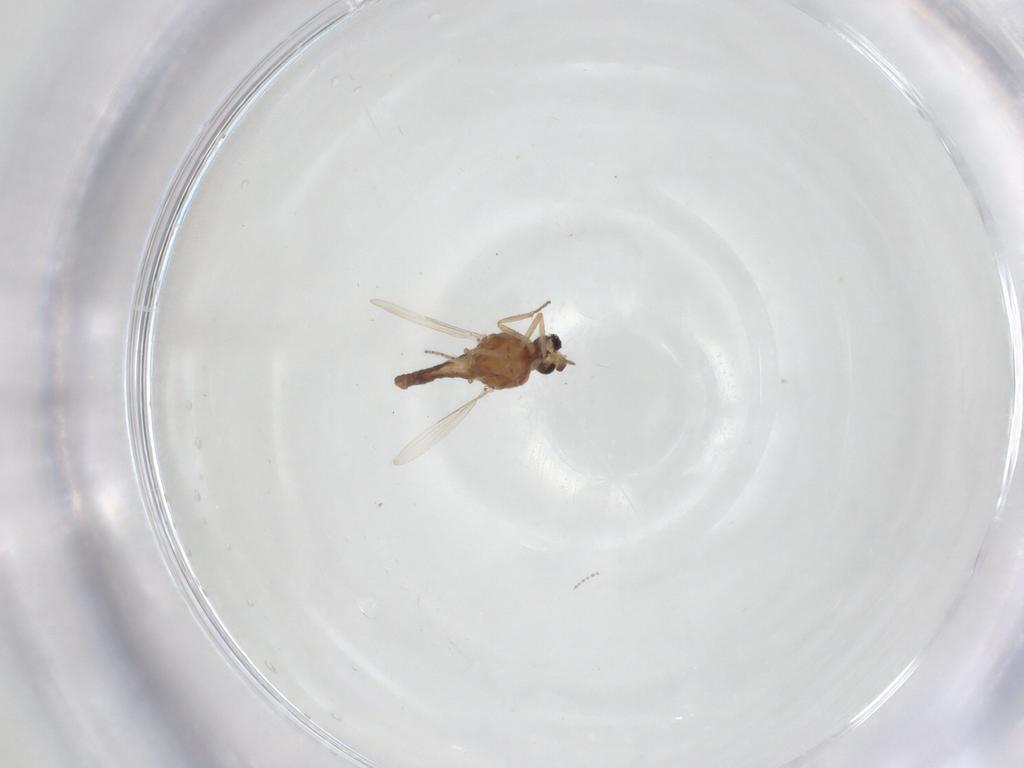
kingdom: Animalia
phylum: Arthropoda
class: Insecta
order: Diptera
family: Ceratopogonidae
